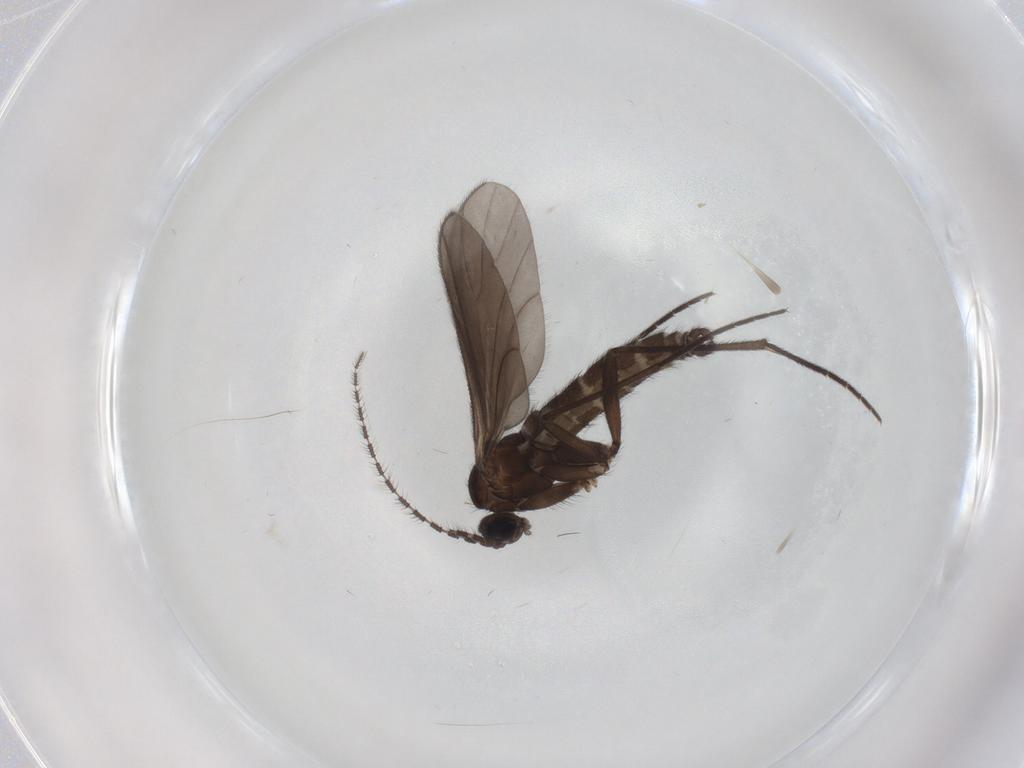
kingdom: Animalia
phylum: Arthropoda
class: Insecta
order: Diptera
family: Sciaridae
